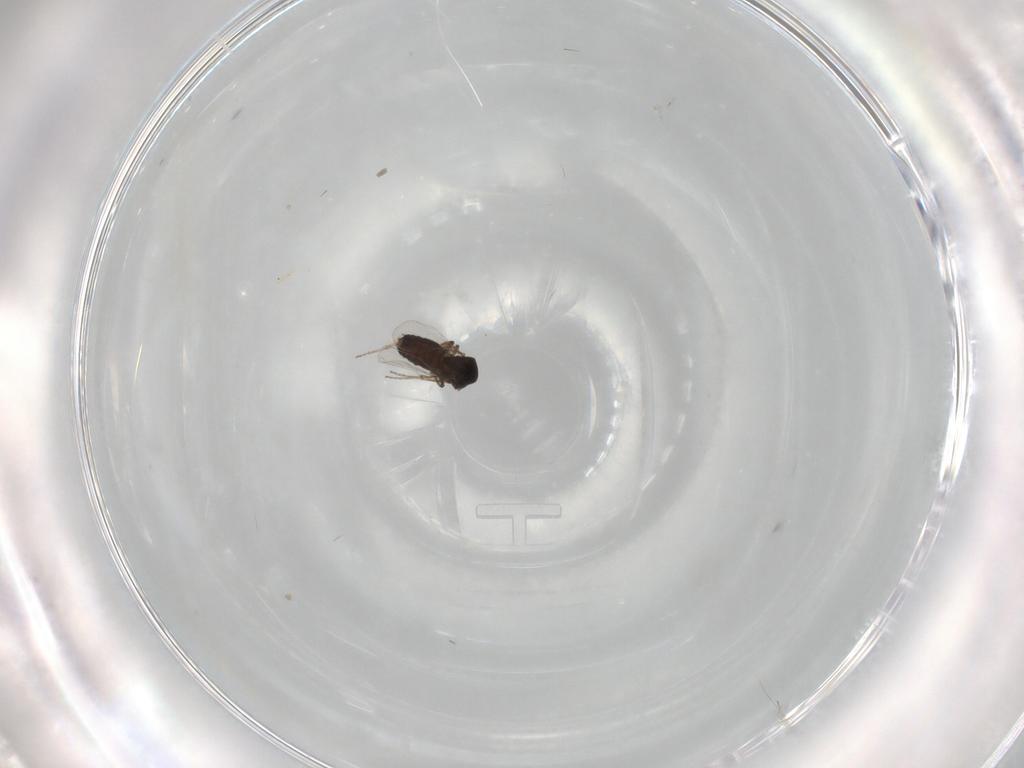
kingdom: Animalia
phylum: Arthropoda
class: Insecta
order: Diptera
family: Ceratopogonidae
